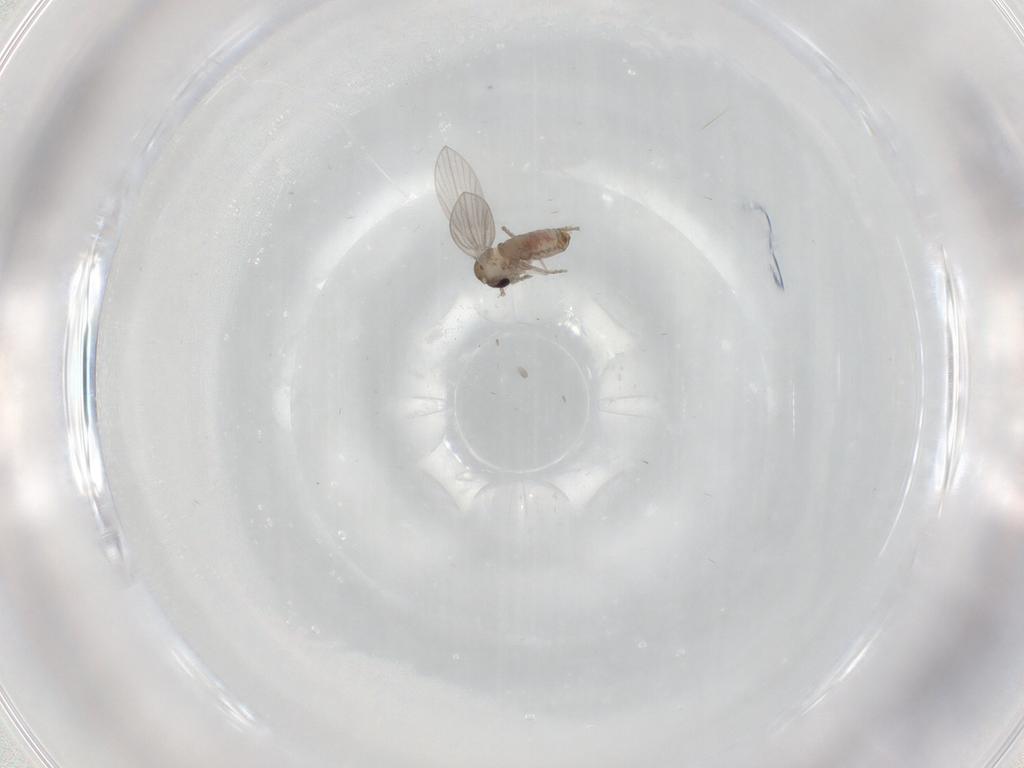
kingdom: Animalia
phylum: Arthropoda
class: Insecta
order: Diptera
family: Psychodidae
